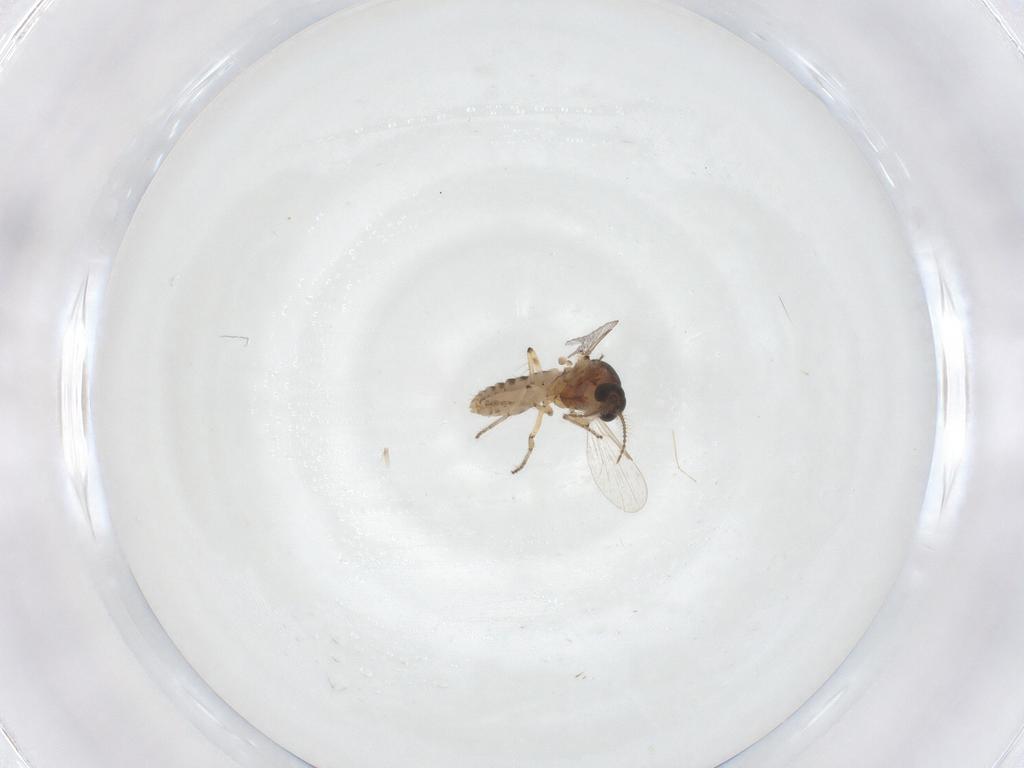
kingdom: Animalia
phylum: Arthropoda
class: Insecta
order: Diptera
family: Ceratopogonidae
